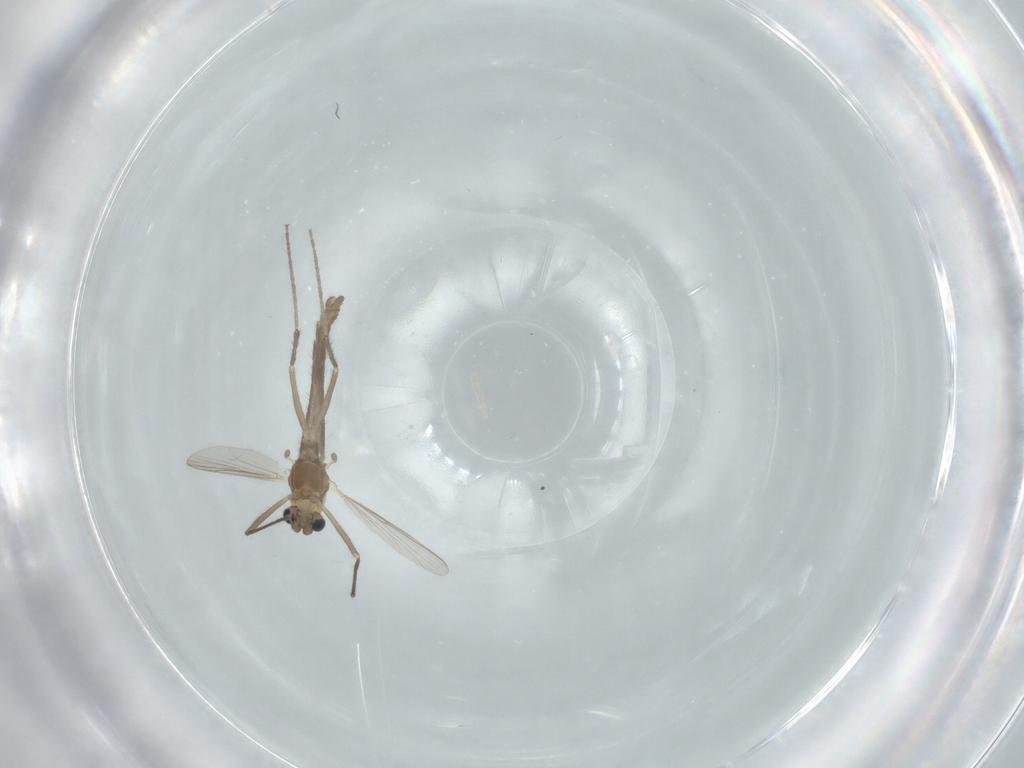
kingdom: Animalia
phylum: Arthropoda
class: Insecta
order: Diptera
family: Chironomidae
